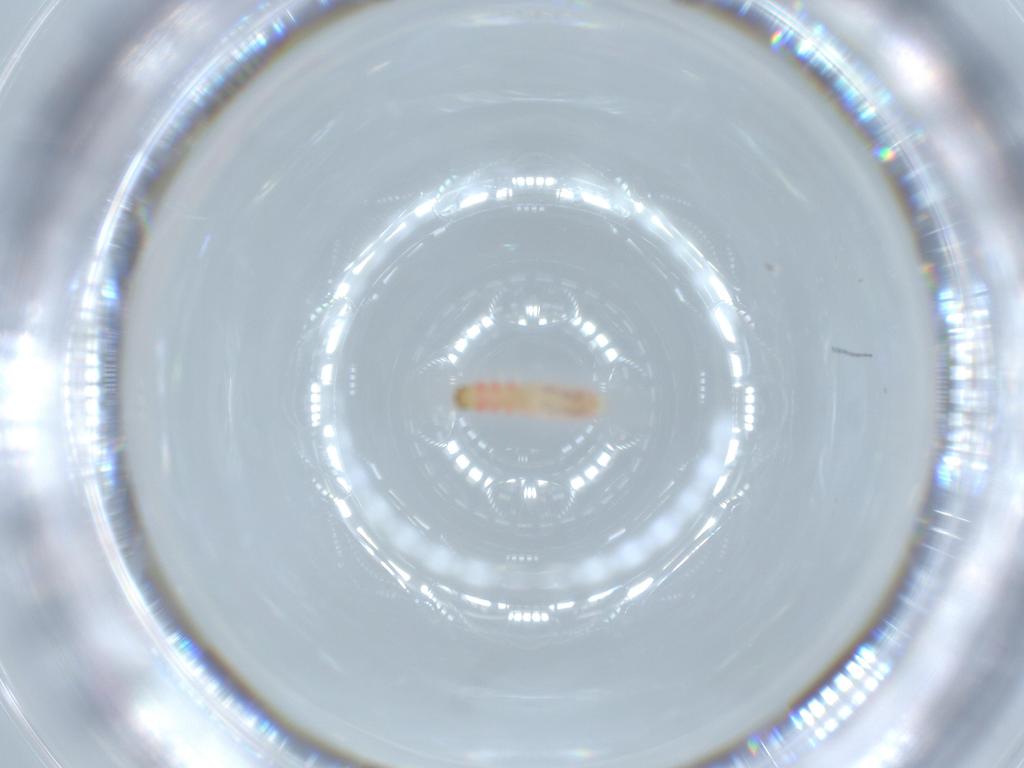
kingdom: Animalia
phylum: Arthropoda
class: Insecta
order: Coleoptera
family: Melyridae
